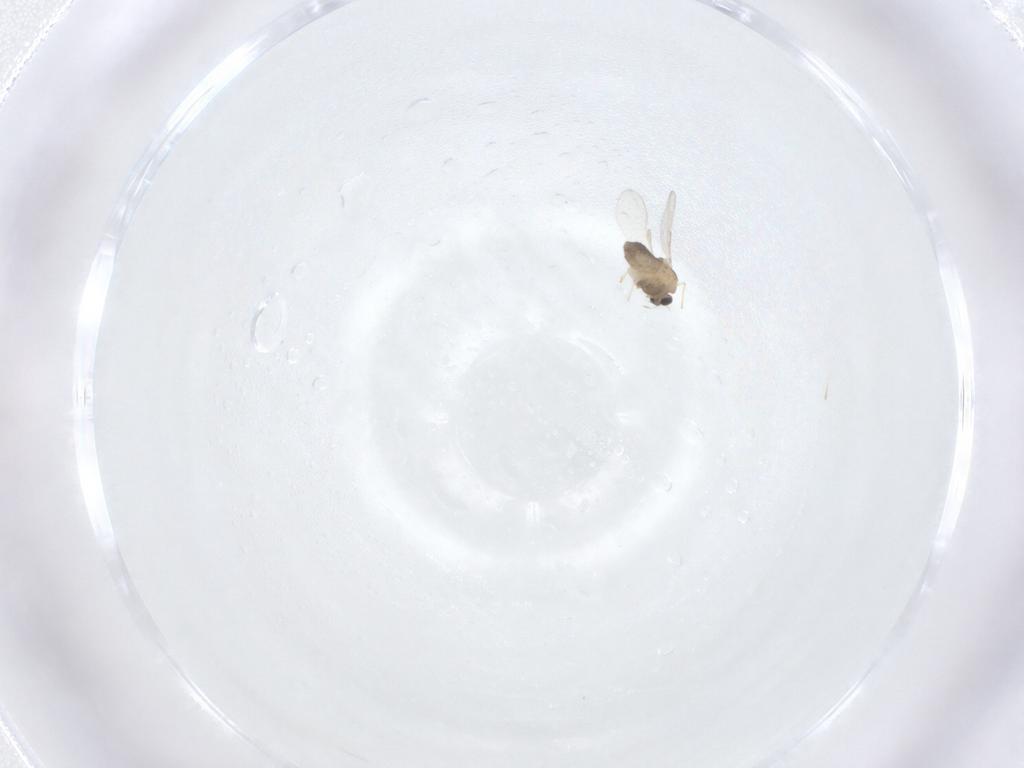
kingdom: Animalia
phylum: Arthropoda
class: Insecta
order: Diptera
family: Chironomidae
